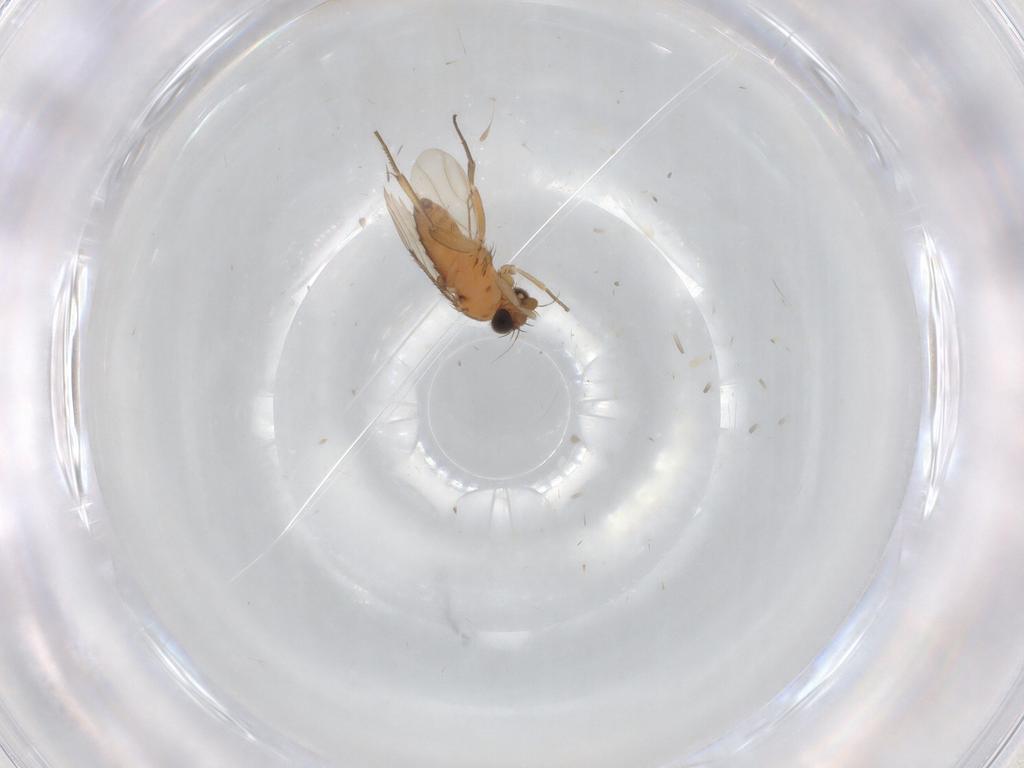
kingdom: Animalia
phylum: Arthropoda
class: Insecta
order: Diptera
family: Phoridae
